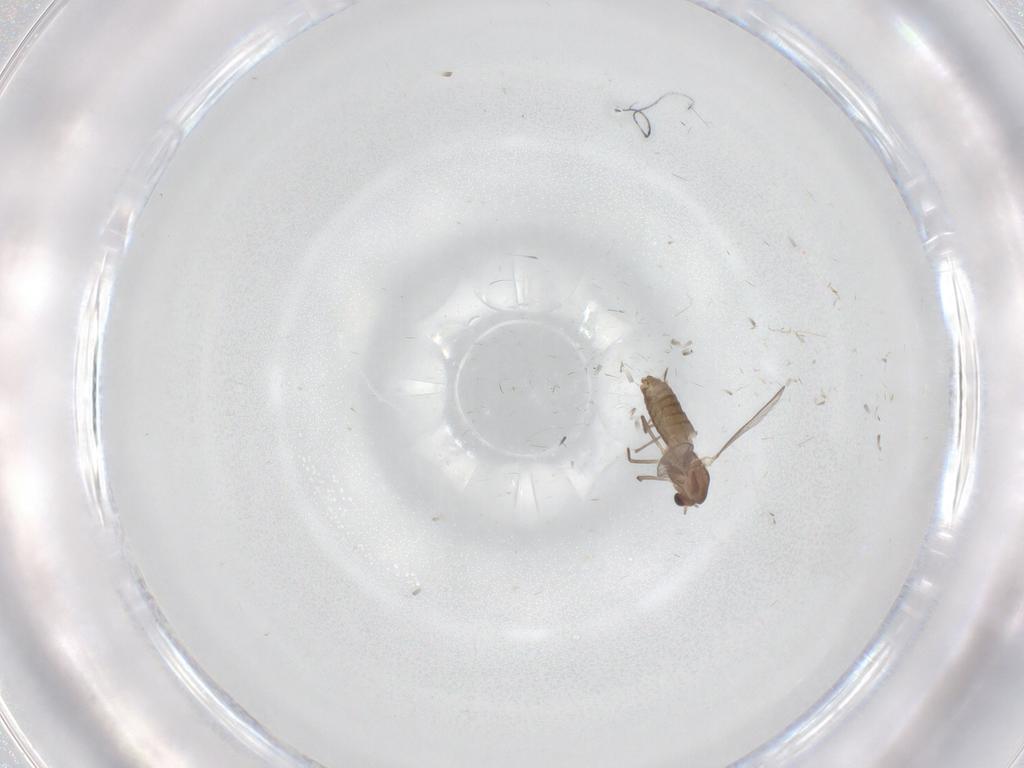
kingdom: Animalia
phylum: Arthropoda
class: Insecta
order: Diptera
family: Chironomidae
